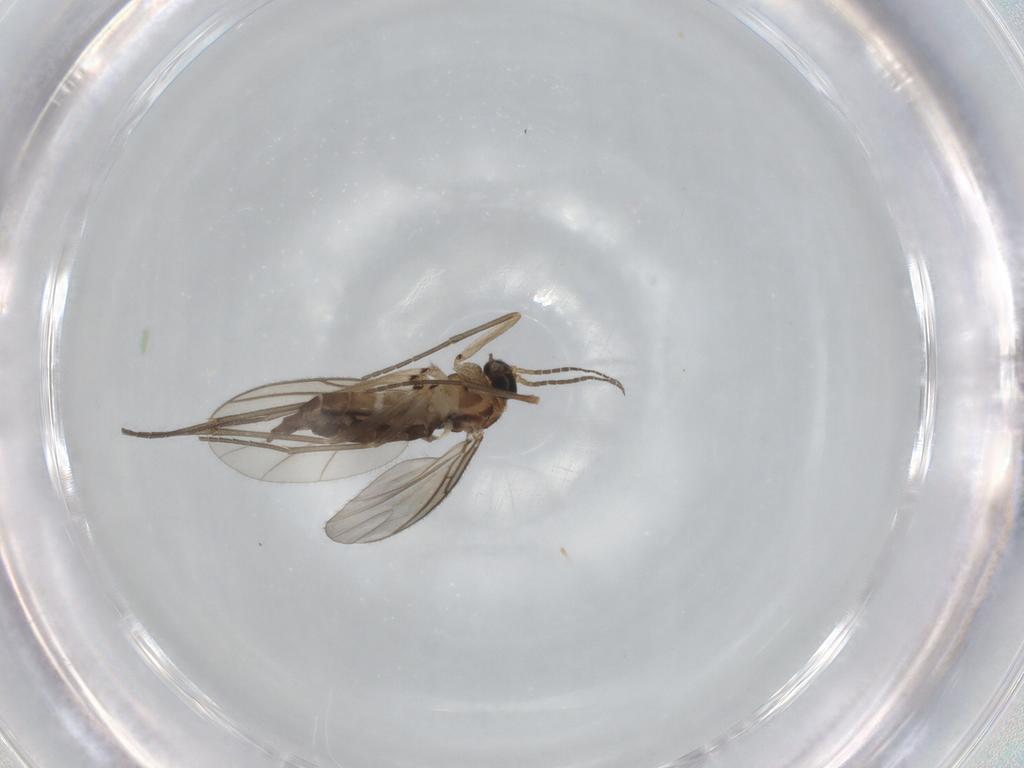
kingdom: Animalia
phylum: Arthropoda
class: Insecta
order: Diptera
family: Sciaridae
